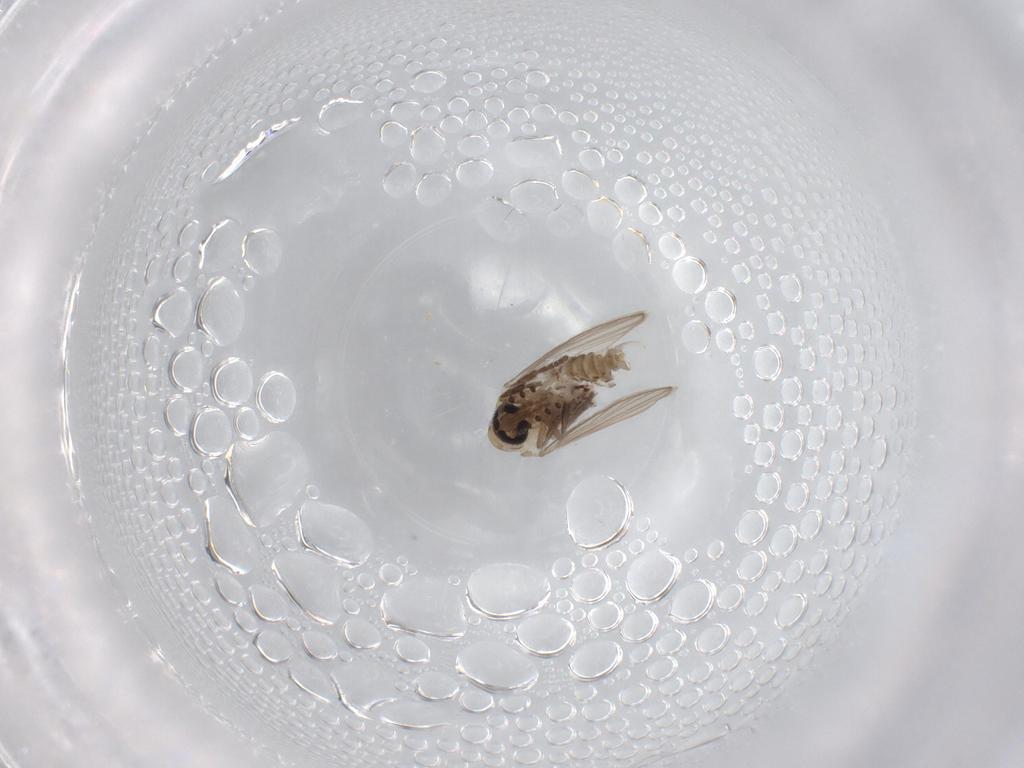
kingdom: Animalia
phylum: Arthropoda
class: Insecta
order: Diptera
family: Psychodidae
